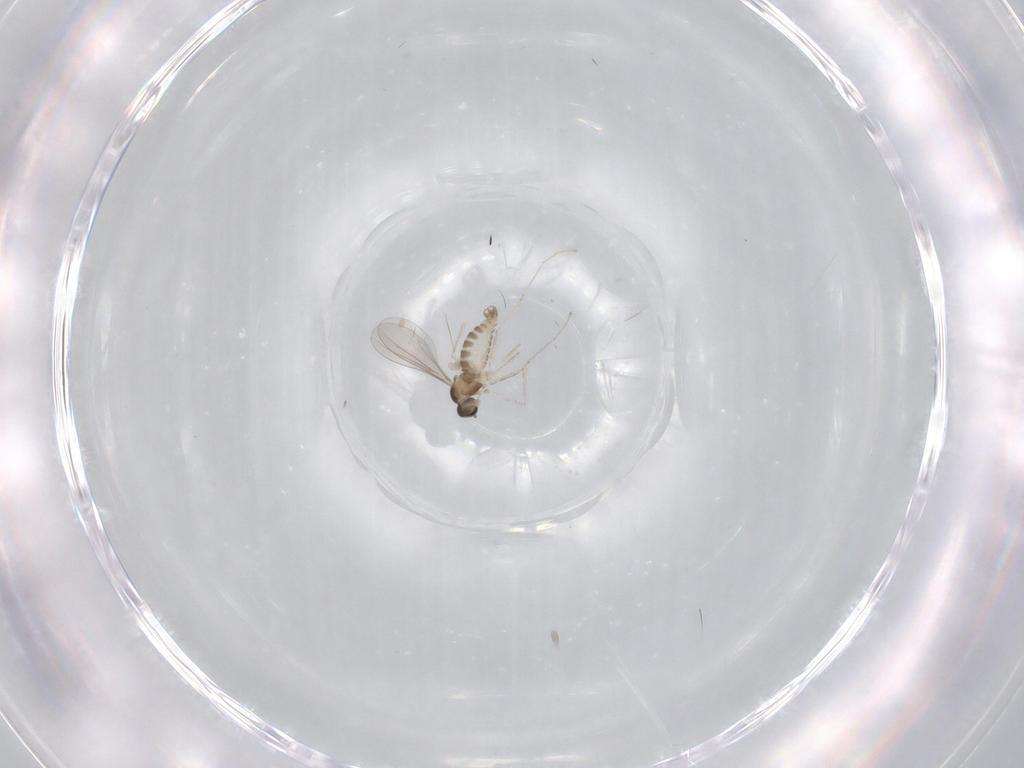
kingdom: Animalia
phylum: Arthropoda
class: Insecta
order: Diptera
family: Cecidomyiidae
